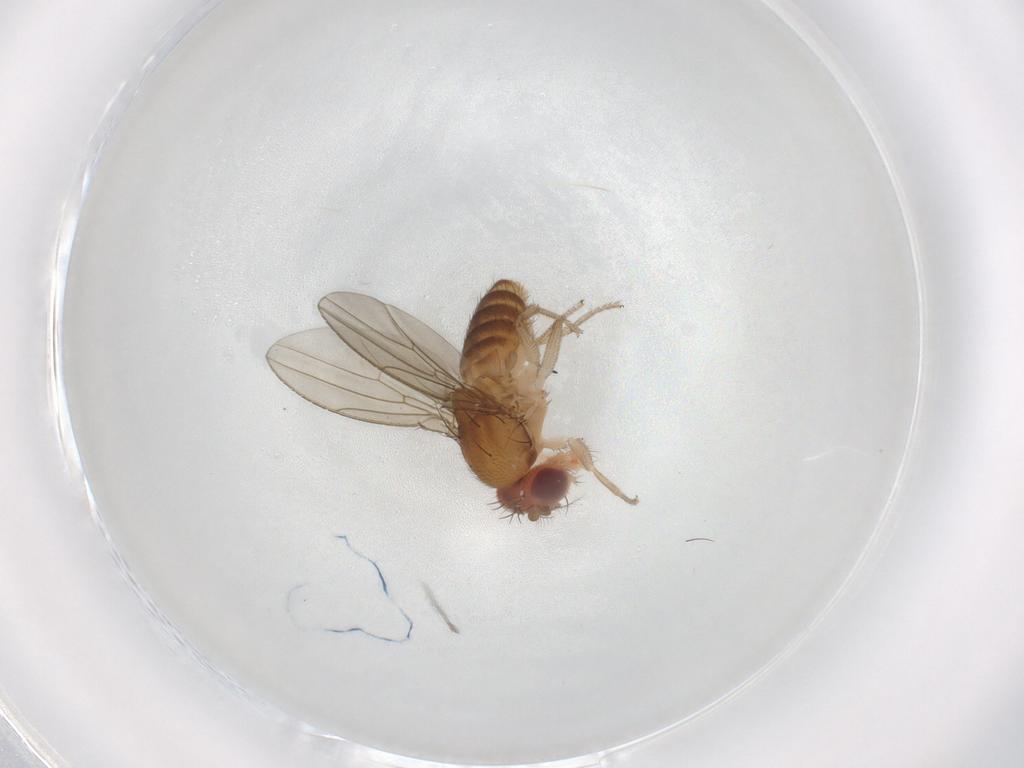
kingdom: Animalia
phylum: Arthropoda
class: Insecta
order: Diptera
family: Drosophilidae
